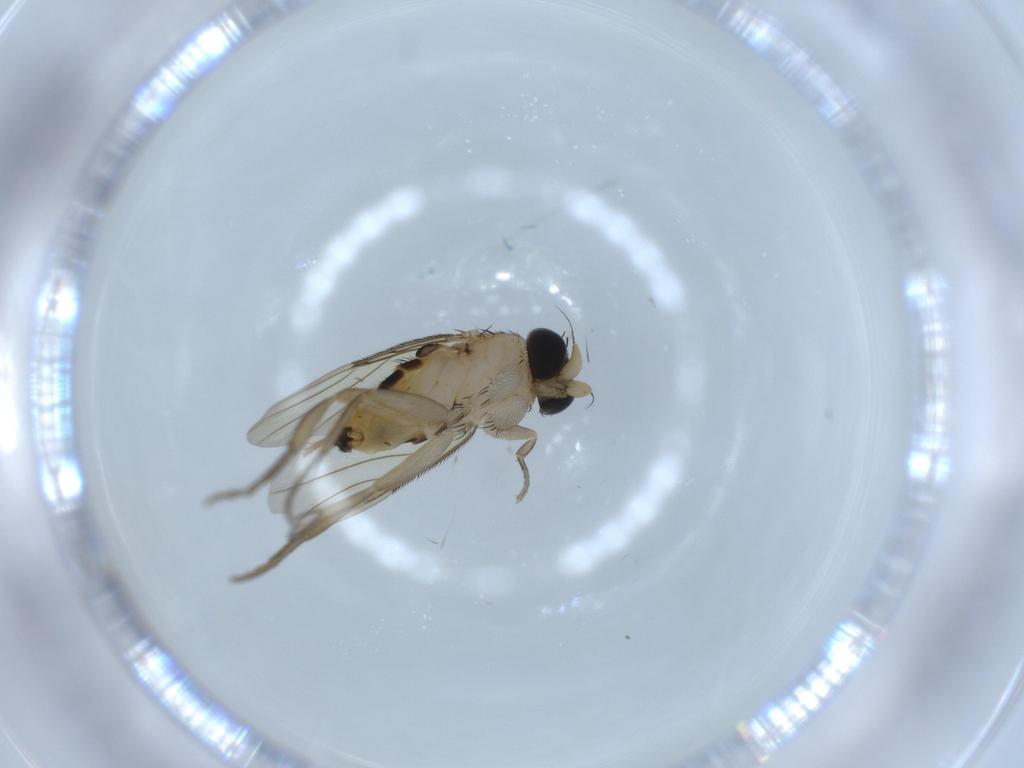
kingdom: Animalia
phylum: Arthropoda
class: Insecta
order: Diptera
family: Phoridae
